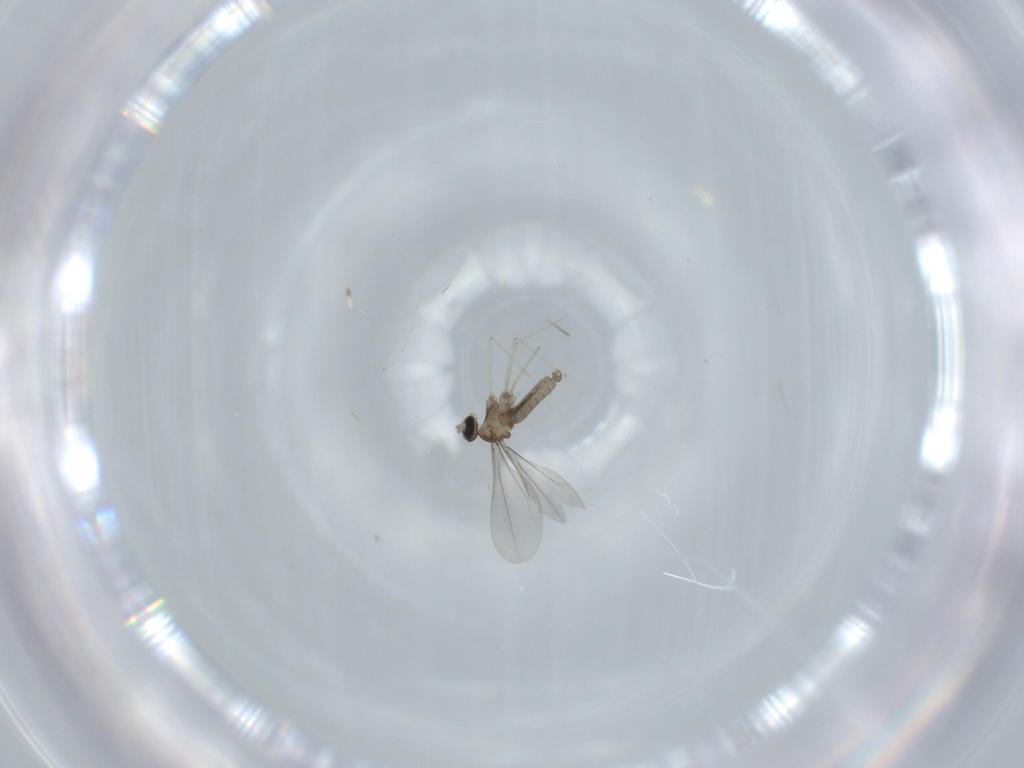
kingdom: Animalia
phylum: Arthropoda
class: Insecta
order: Diptera
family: Cecidomyiidae
